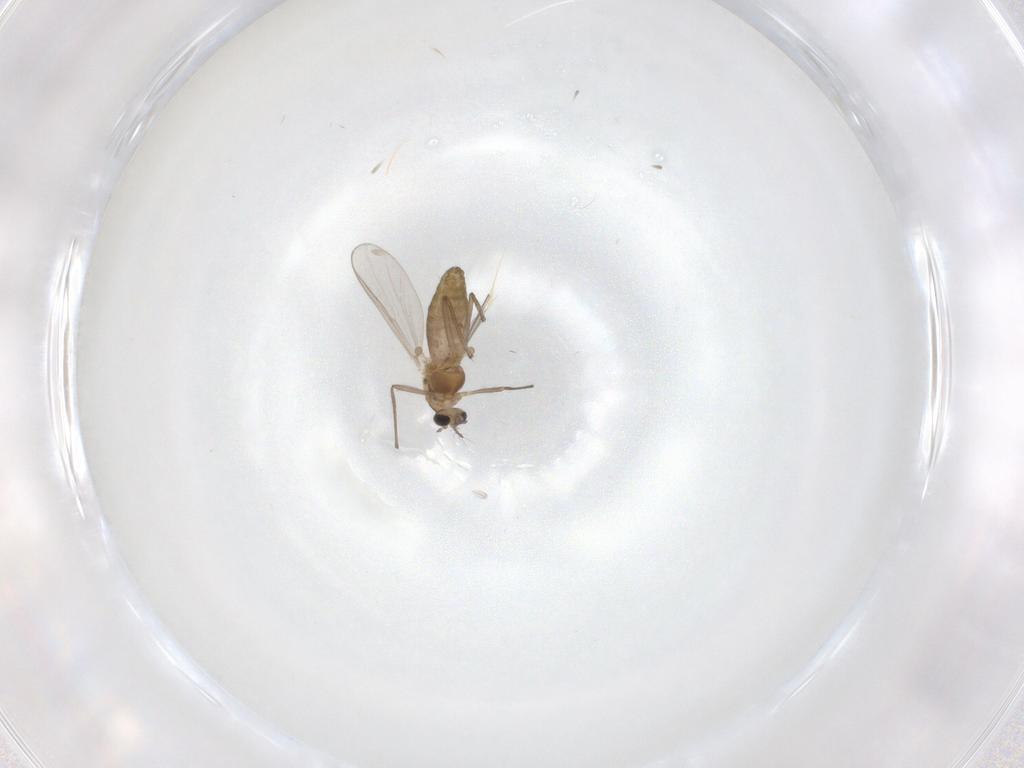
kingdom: Animalia
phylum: Arthropoda
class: Insecta
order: Diptera
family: Chironomidae
